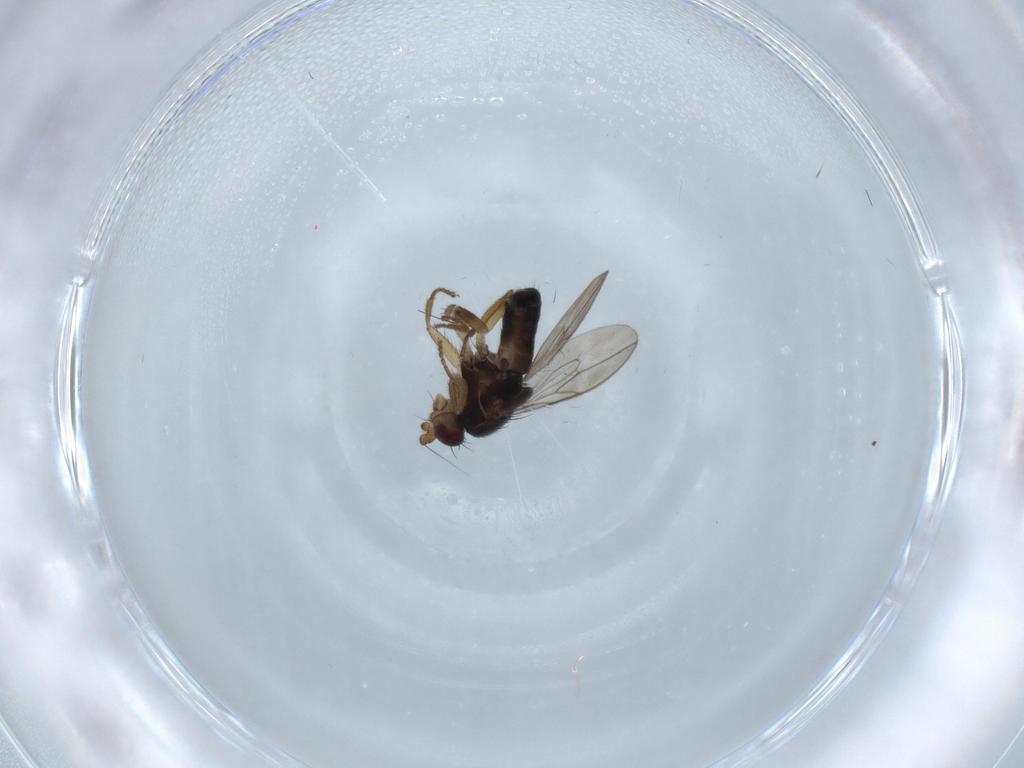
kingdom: Animalia
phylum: Arthropoda
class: Insecta
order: Diptera
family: Sphaeroceridae
